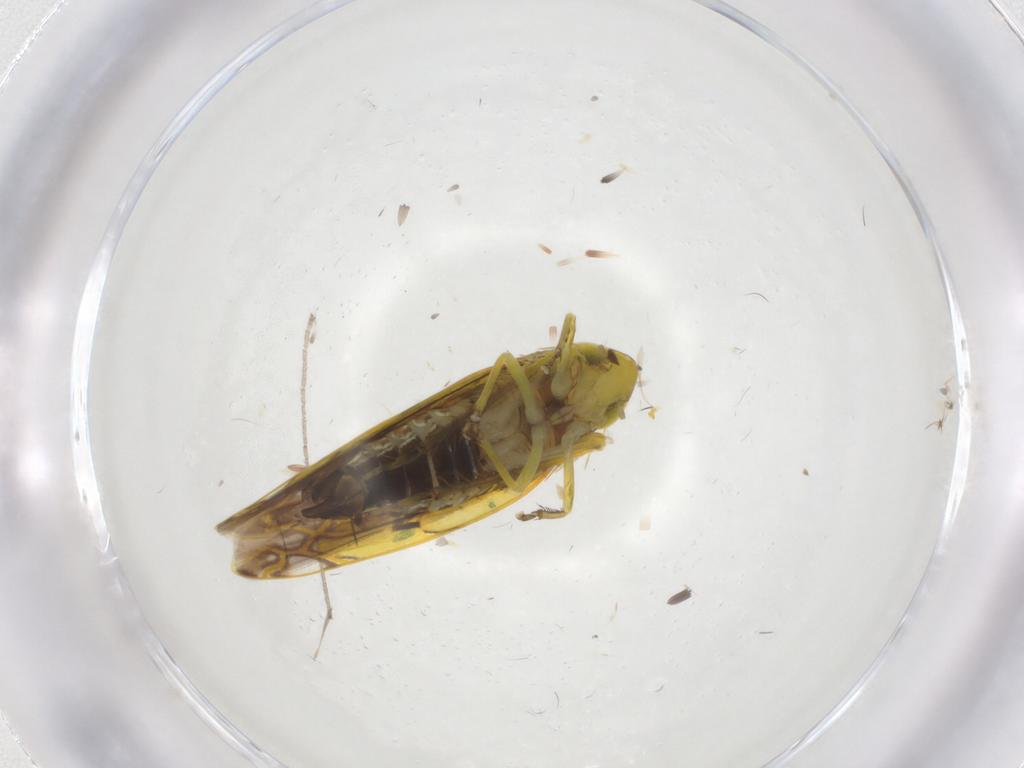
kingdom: Animalia
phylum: Arthropoda
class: Insecta
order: Hemiptera
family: Cicadellidae
